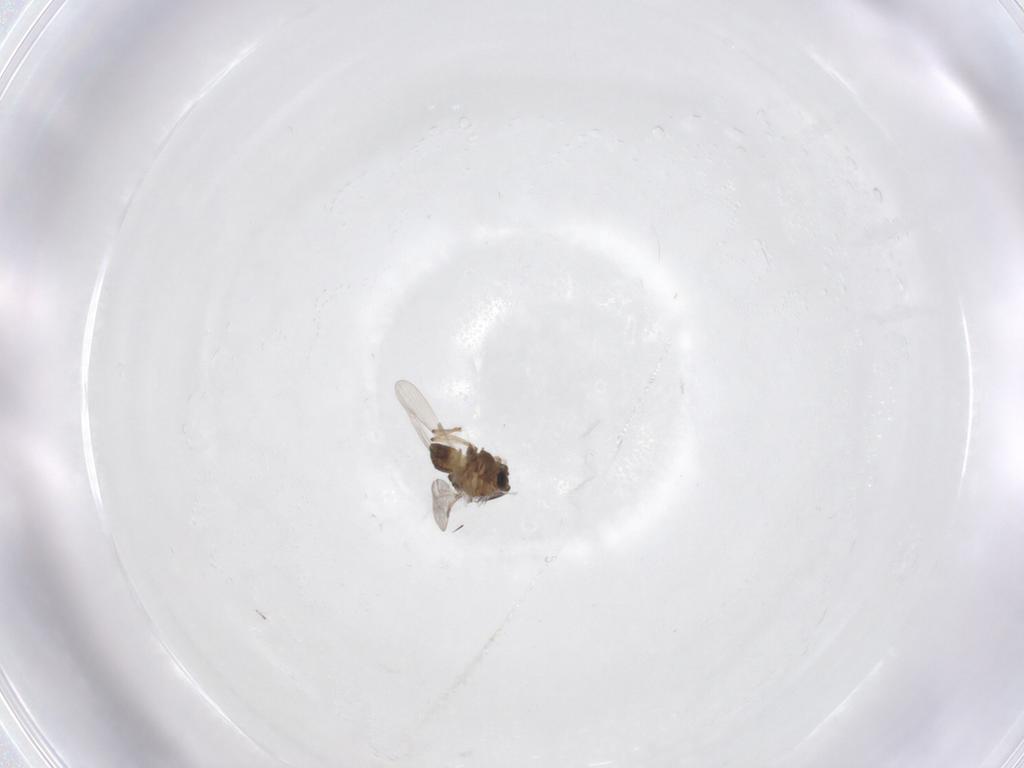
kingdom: Animalia
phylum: Arthropoda
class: Insecta
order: Diptera
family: Chironomidae
